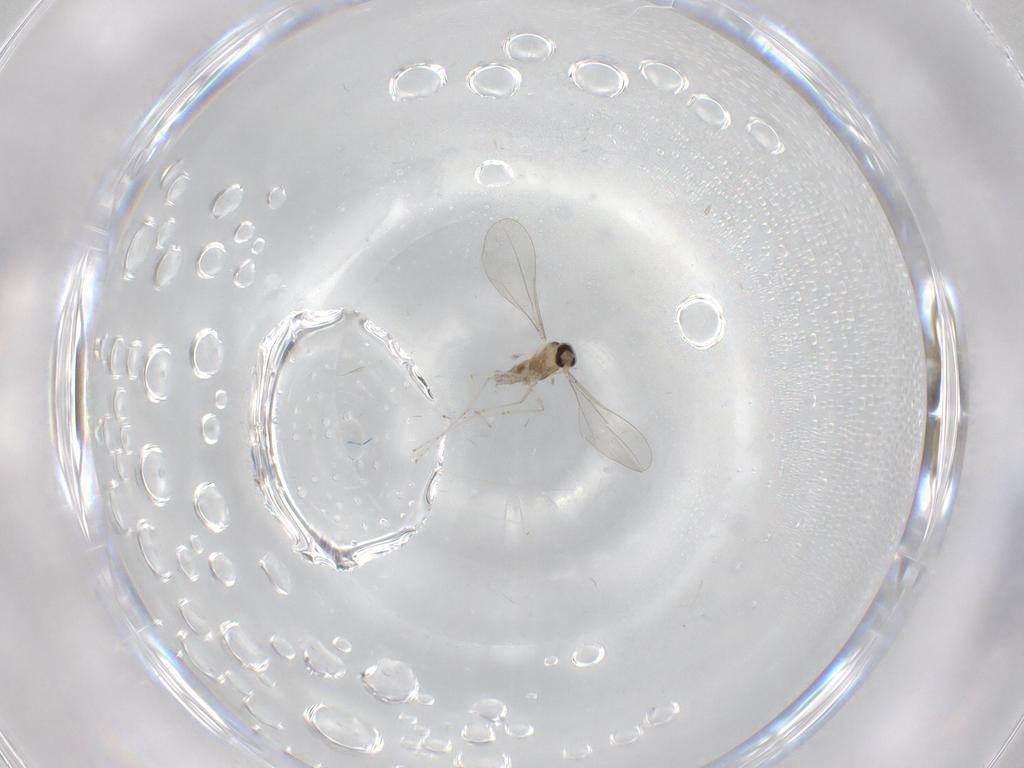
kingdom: Animalia
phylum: Arthropoda
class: Insecta
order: Diptera
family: Cecidomyiidae
